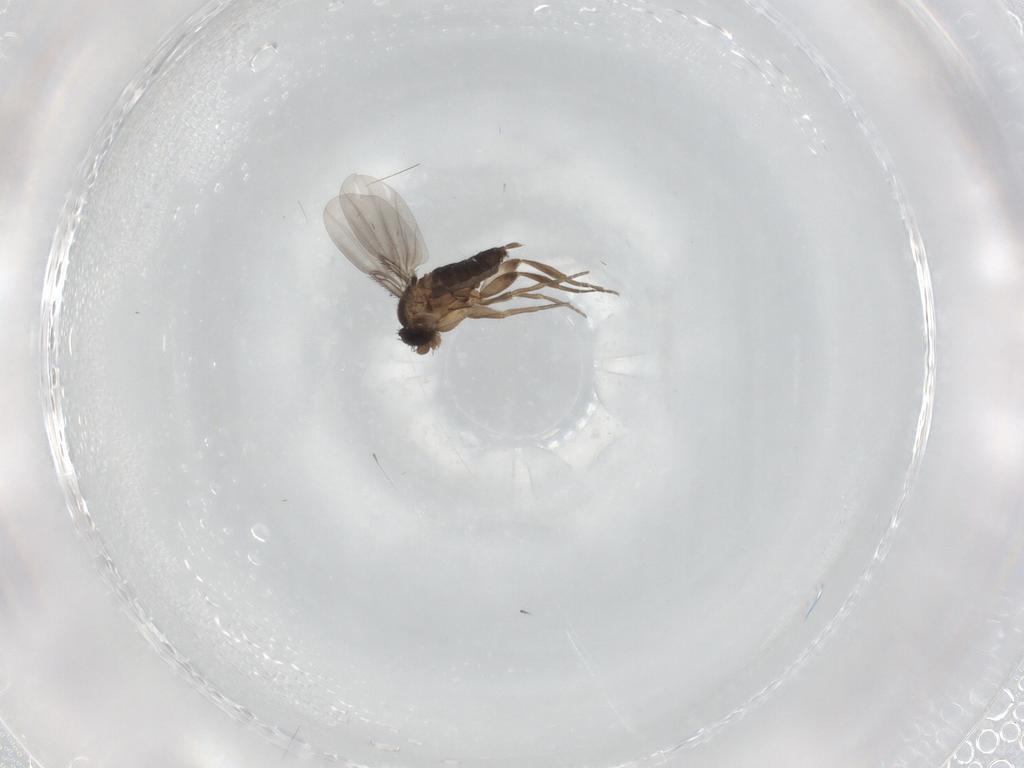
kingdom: Animalia
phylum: Arthropoda
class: Insecta
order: Diptera
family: Phoridae
